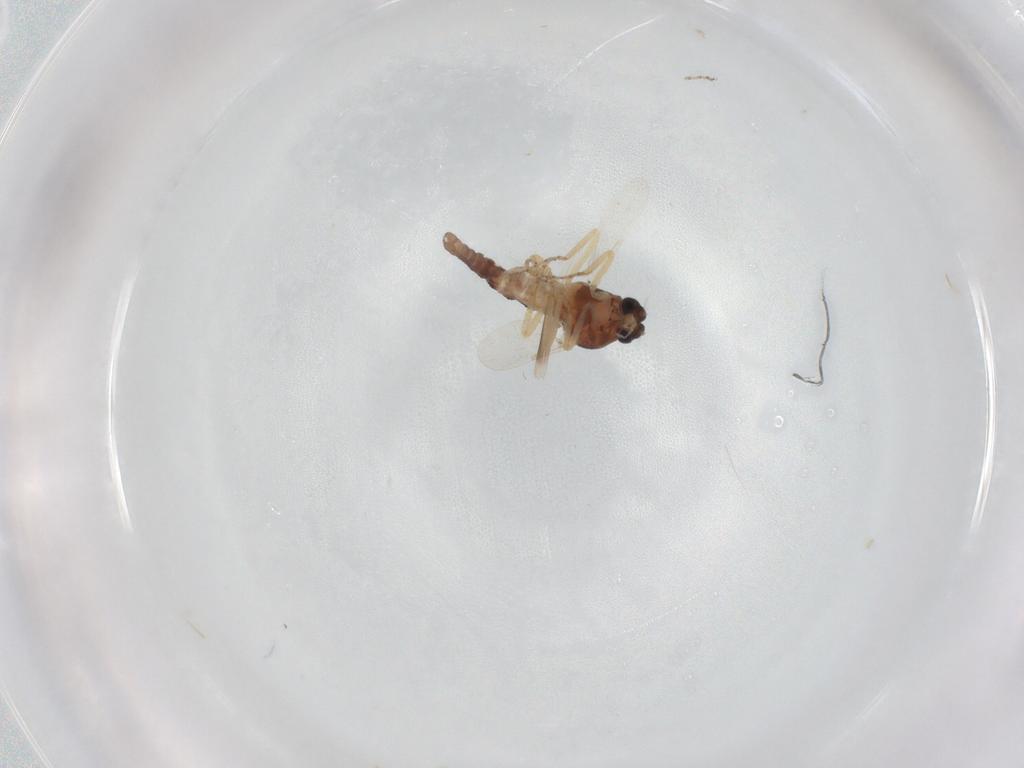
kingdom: Animalia
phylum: Arthropoda
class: Insecta
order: Diptera
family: Ceratopogonidae
